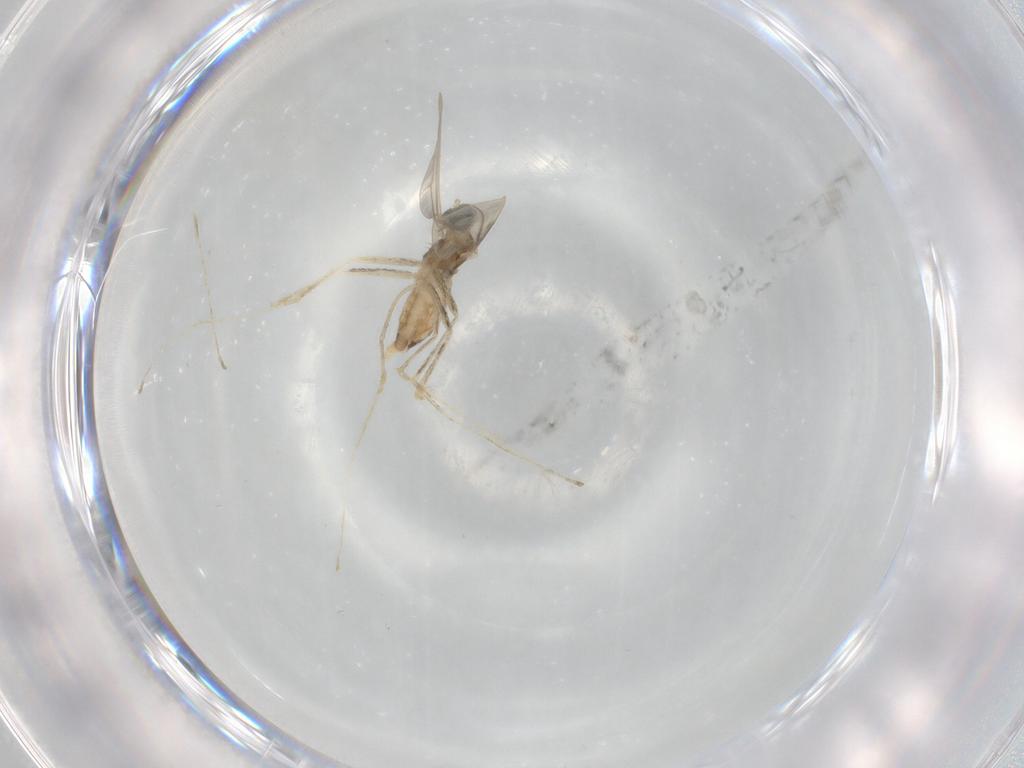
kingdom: Animalia
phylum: Arthropoda
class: Insecta
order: Diptera
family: Cecidomyiidae
